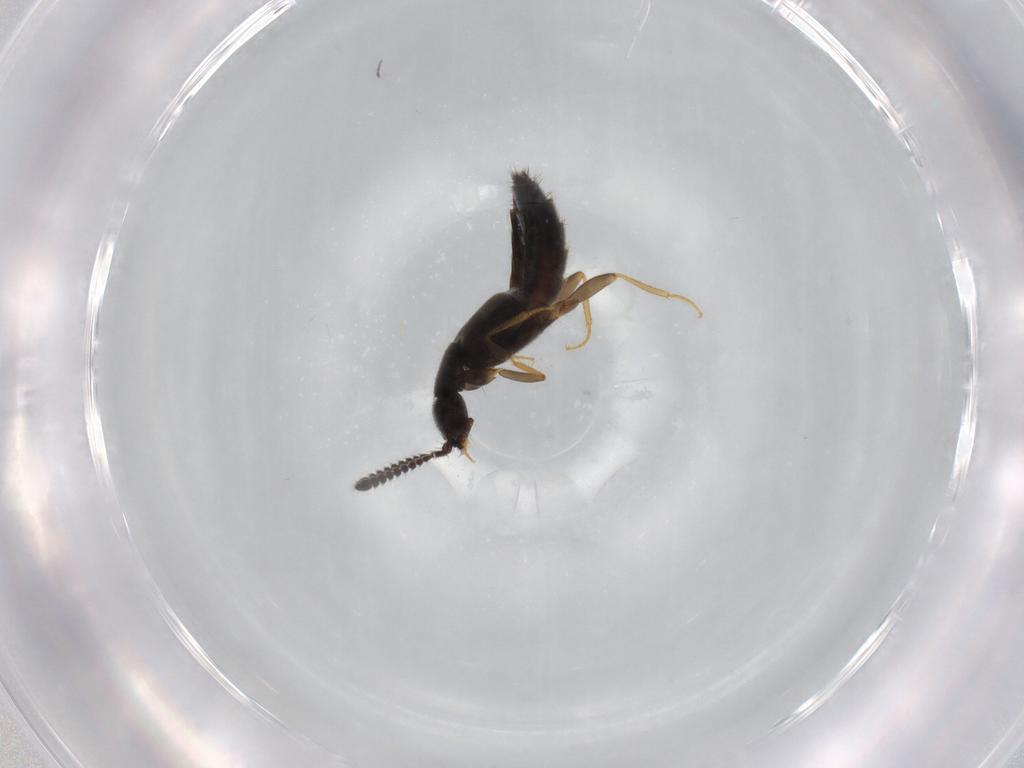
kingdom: Animalia
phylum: Arthropoda
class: Insecta
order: Coleoptera
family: Staphylinidae
